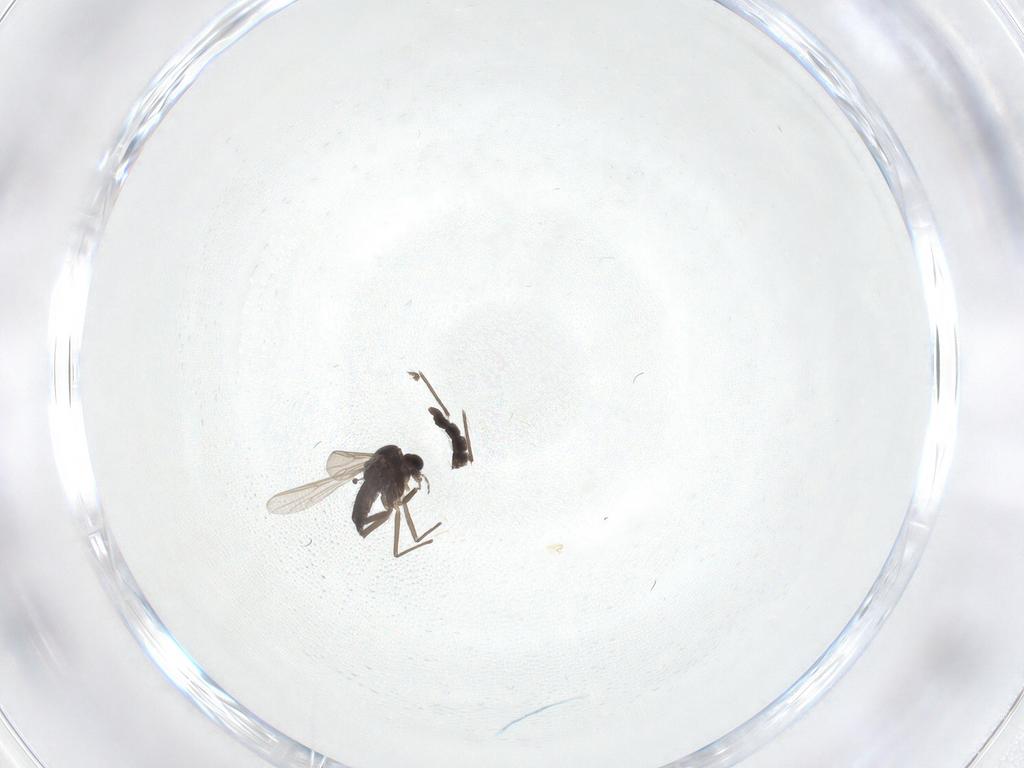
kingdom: Animalia
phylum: Arthropoda
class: Insecta
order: Diptera
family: Chironomidae
